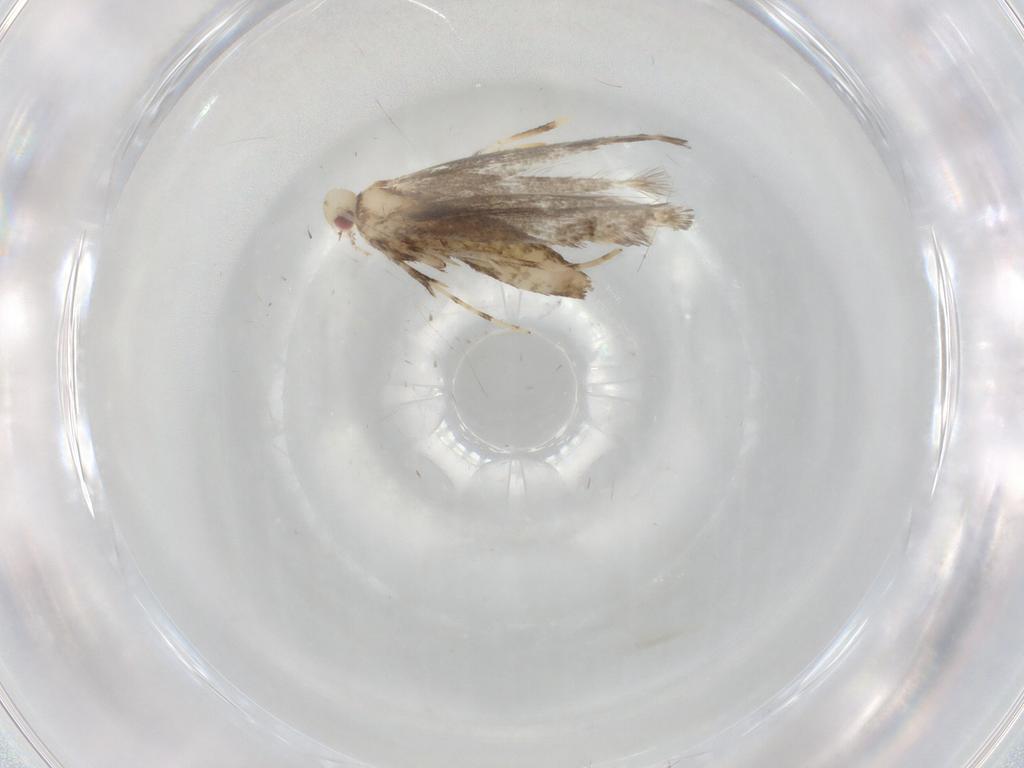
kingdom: Animalia
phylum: Arthropoda
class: Insecta
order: Lepidoptera
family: Gracillariidae
